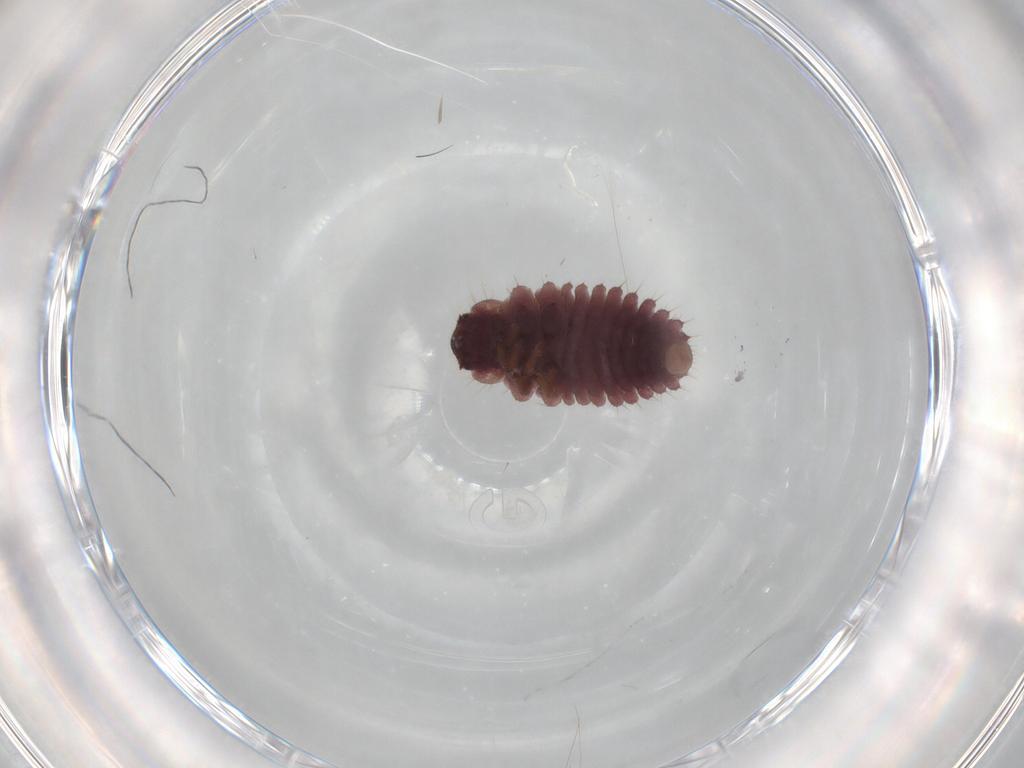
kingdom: Animalia
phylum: Arthropoda
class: Insecta
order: Coleoptera
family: Coccinellidae
